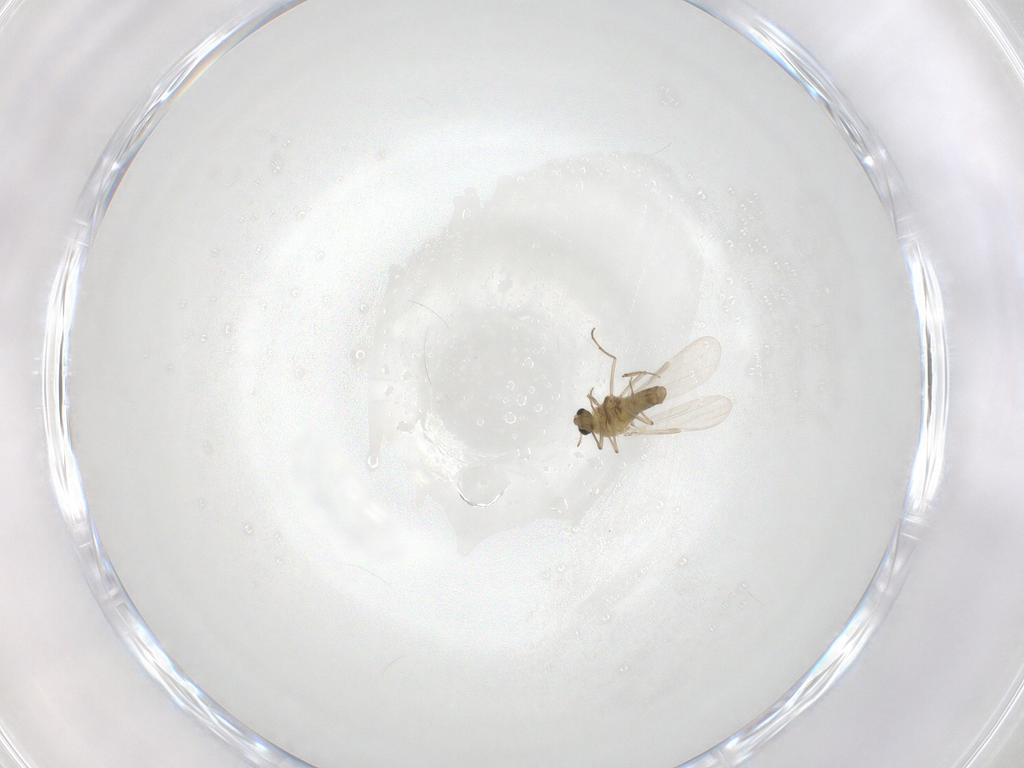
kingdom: Animalia
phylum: Arthropoda
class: Insecta
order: Diptera
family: Chironomidae
